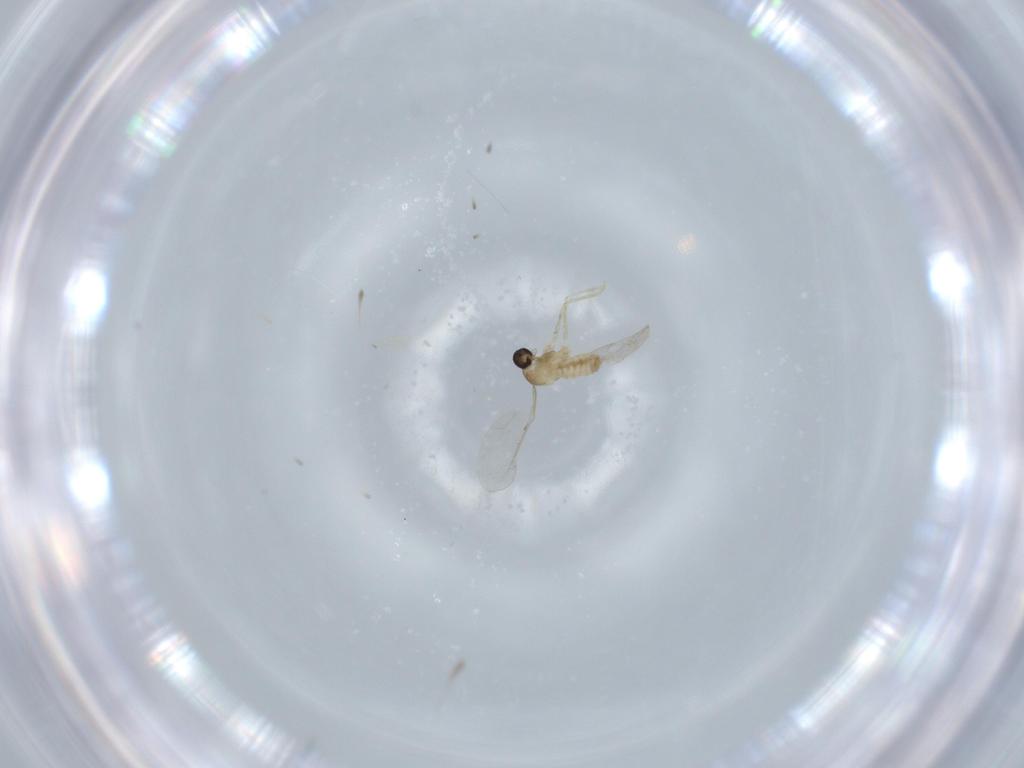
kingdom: Animalia
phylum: Arthropoda
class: Insecta
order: Diptera
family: Cecidomyiidae
